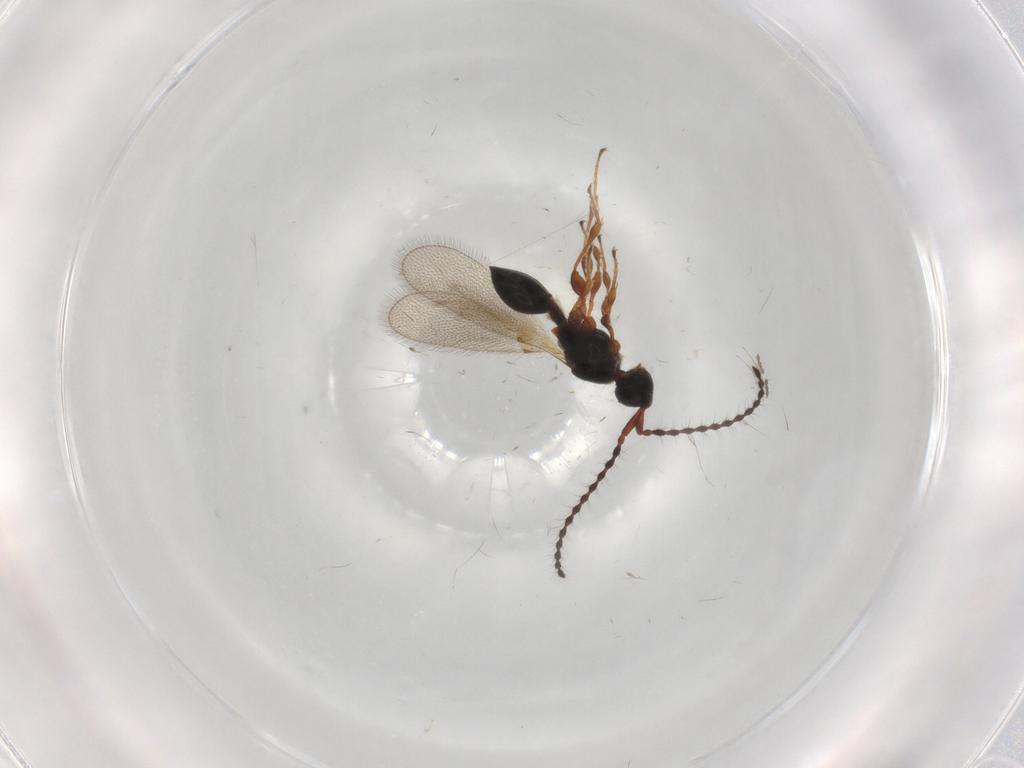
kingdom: Animalia
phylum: Arthropoda
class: Insecta
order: Hymenoptera
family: Diapriidae
